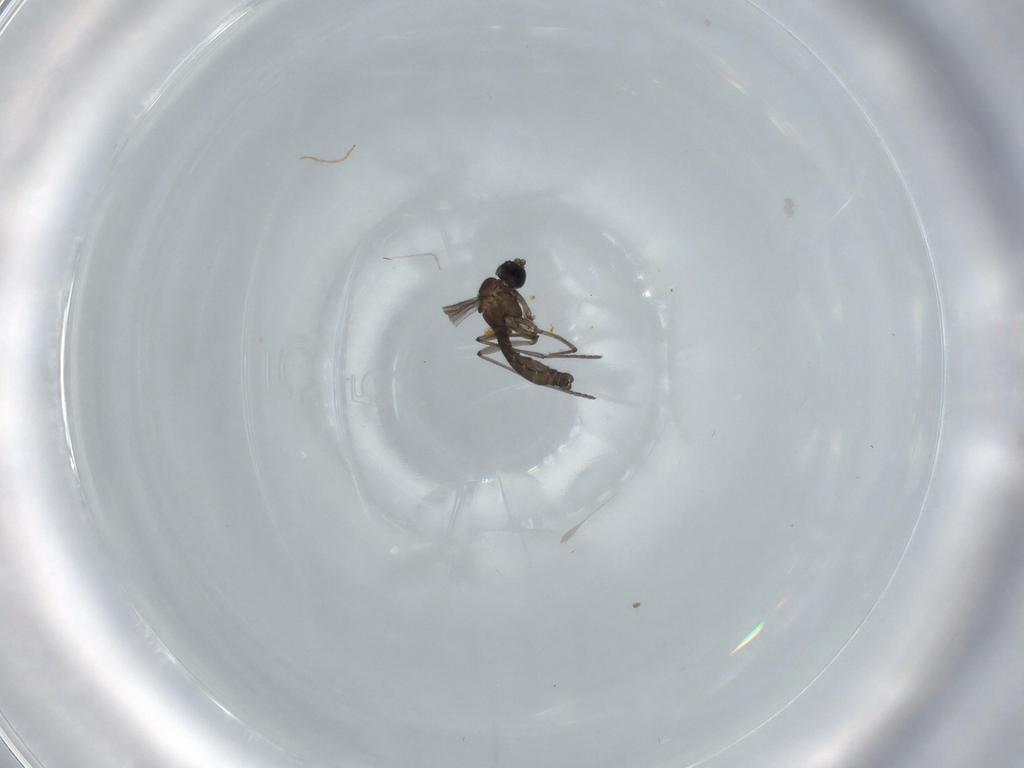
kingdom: Animalia
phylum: Arthropoda
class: Insecta
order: Diptera
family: Cecidomyiidae
